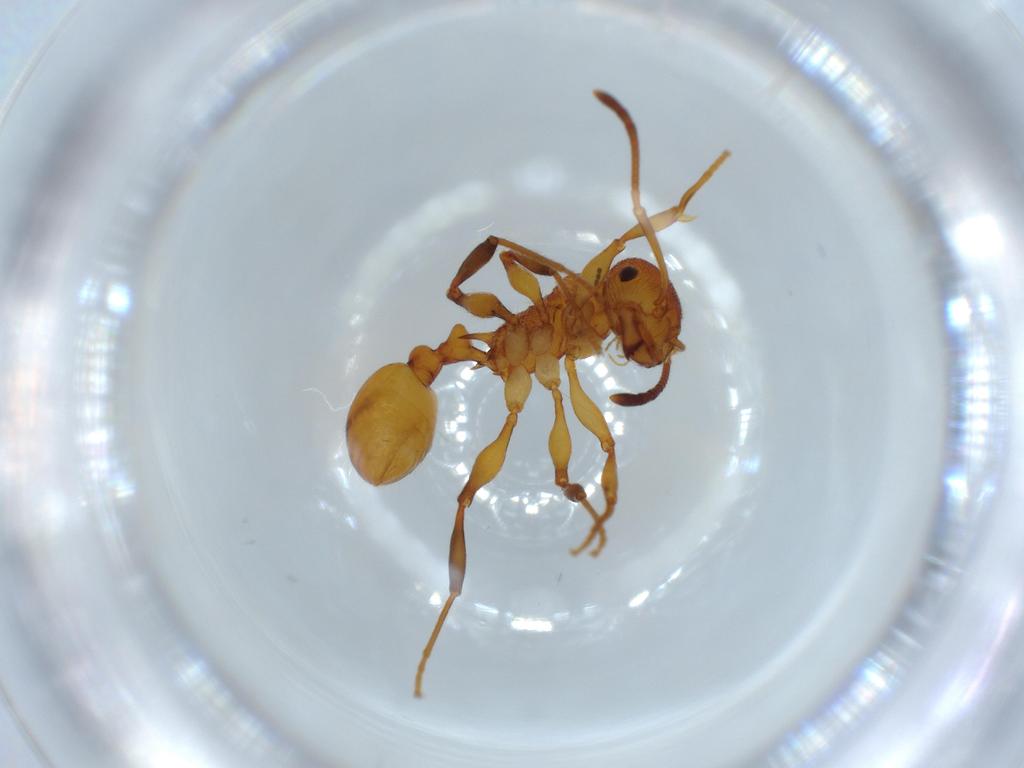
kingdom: Animalia
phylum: Arthropoda
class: Insecta
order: Hymenoptera
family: Formicidae
